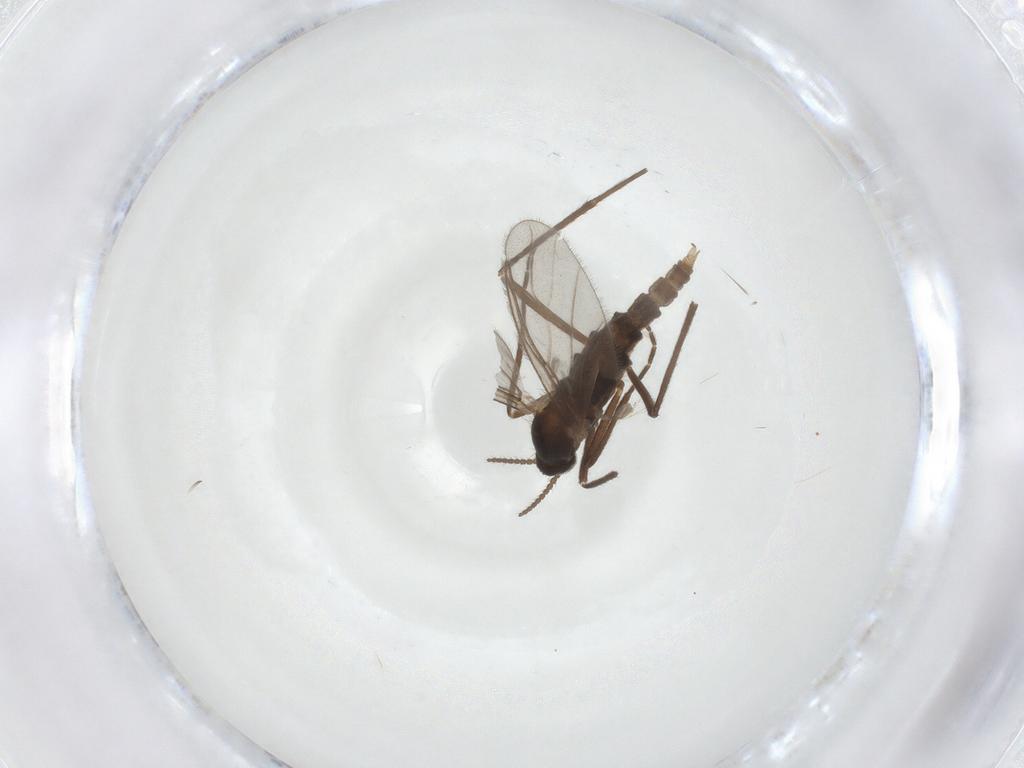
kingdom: Animalia
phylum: Arthropoda
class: Insecta
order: Diptera
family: Cecidomyiidae
